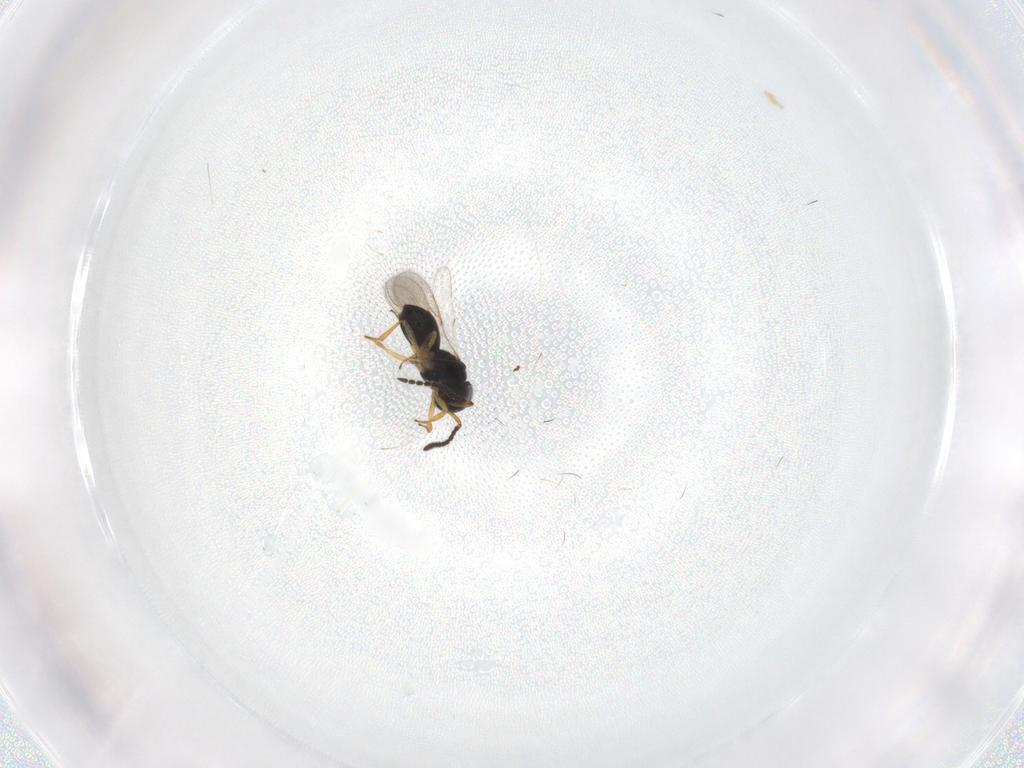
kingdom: Animalia
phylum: Arthropoda
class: Insecta
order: Hymenoptera
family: Scelionidae
